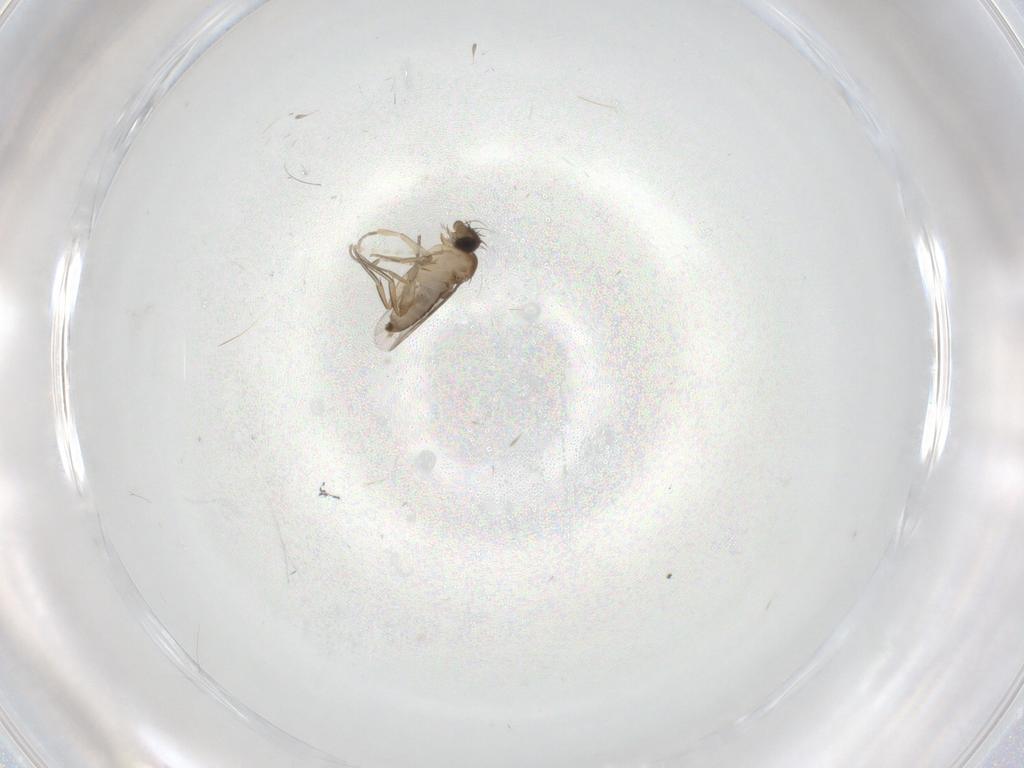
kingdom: Animalia
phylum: Arthropoda
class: Insecta
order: Diptera
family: Phoridae
